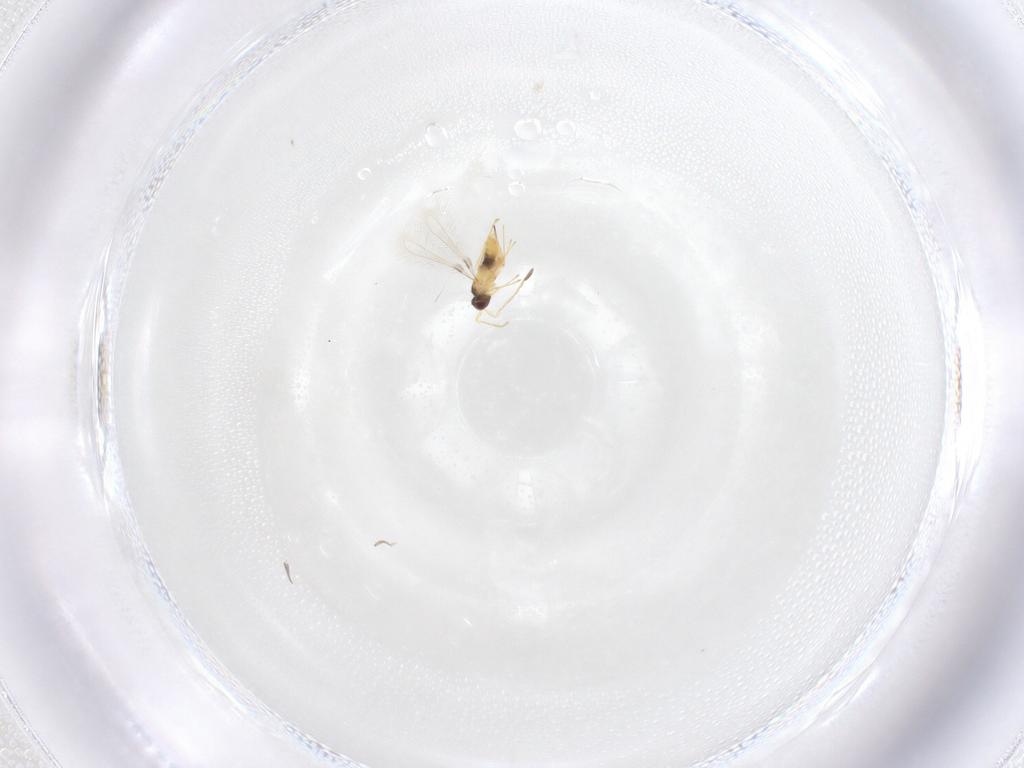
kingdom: Animalia
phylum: Arthropoda
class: Insecta
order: Hymenoptera
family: Mymaridae
